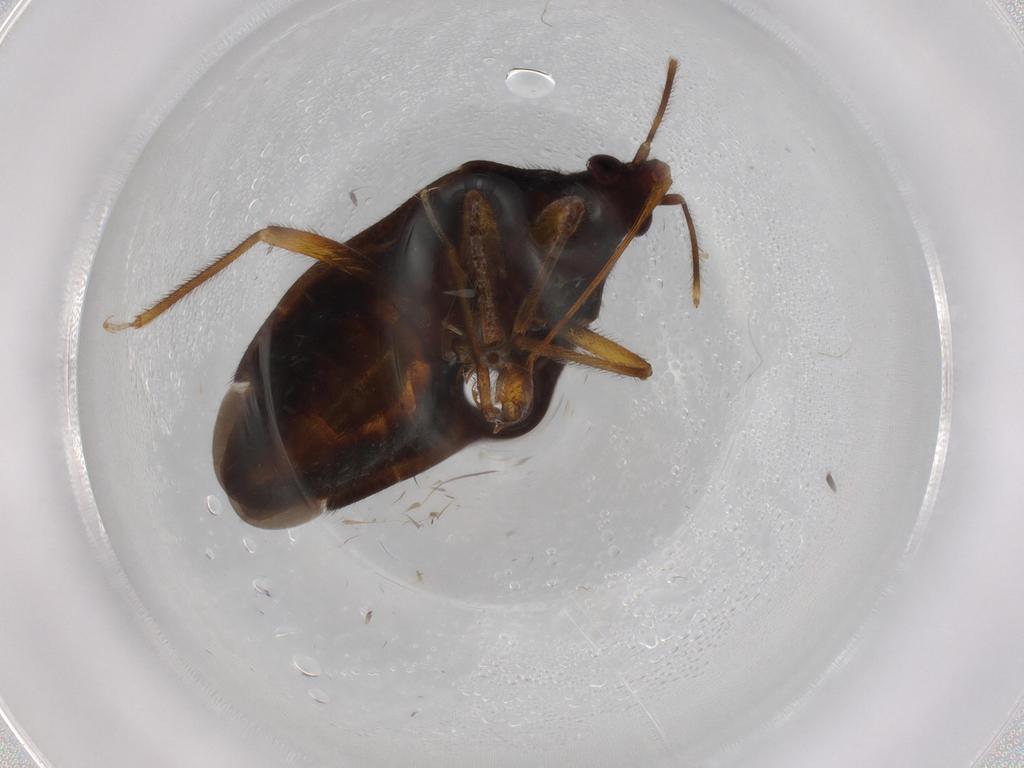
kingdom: Animalia
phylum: Arthropoda
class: Insecta
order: Hemiptera
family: Anthocoridae
